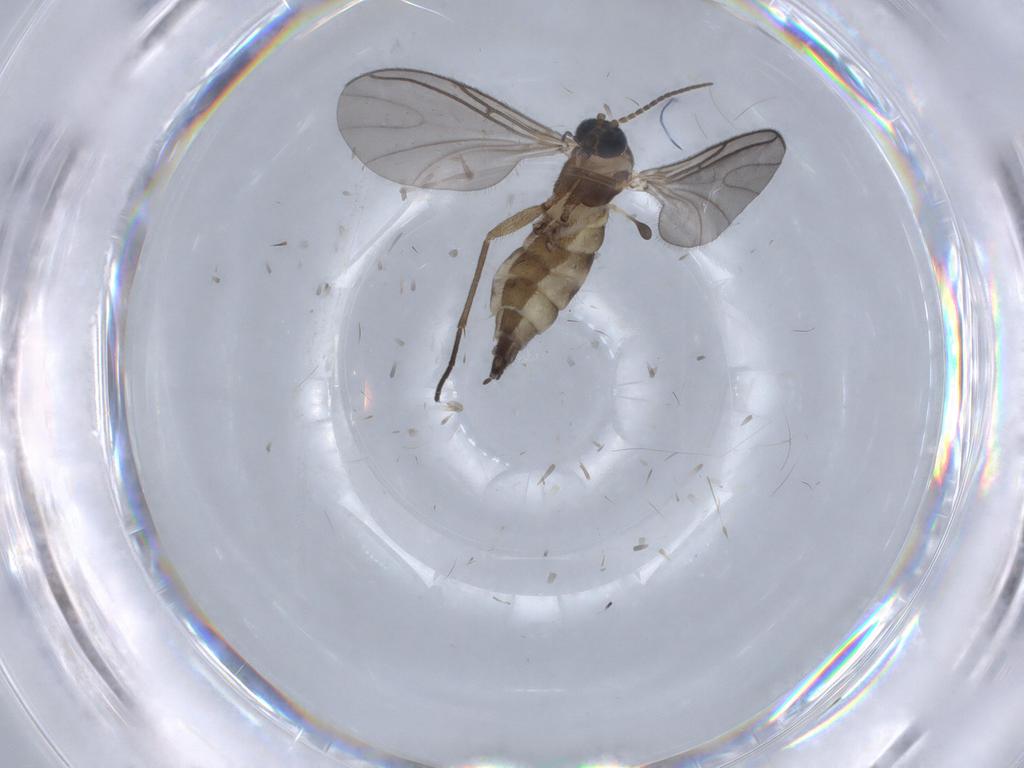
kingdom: Animalia
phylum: Arthropoda
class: Insecta
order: Diptera
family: Sciaridae
